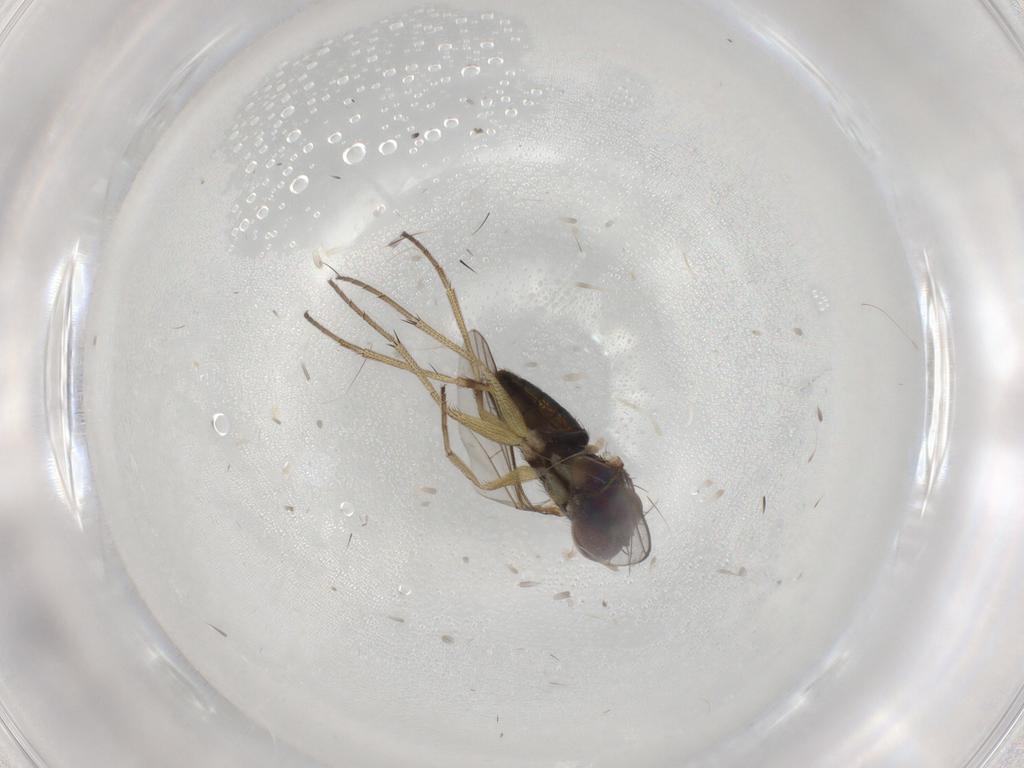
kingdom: Animalia
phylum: Arthropoda
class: Insecta
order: Diptera
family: Dolichopodidae
